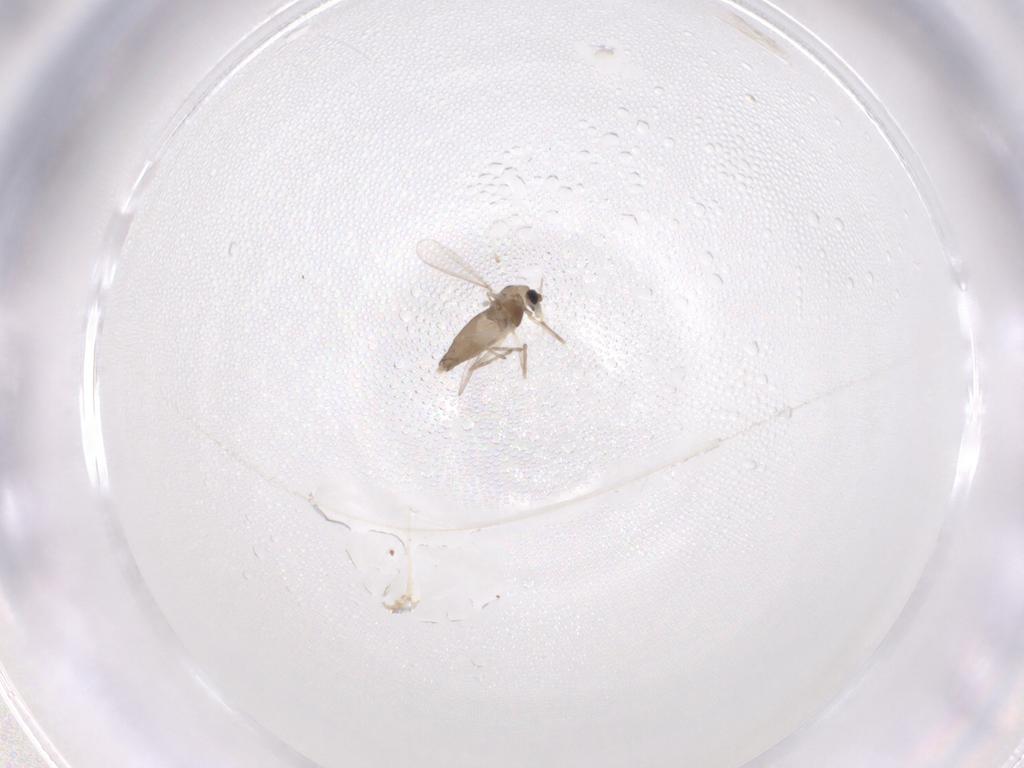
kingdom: Animalia
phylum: Arthropoda
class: Insecta
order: Diptera
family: Chironomidae
